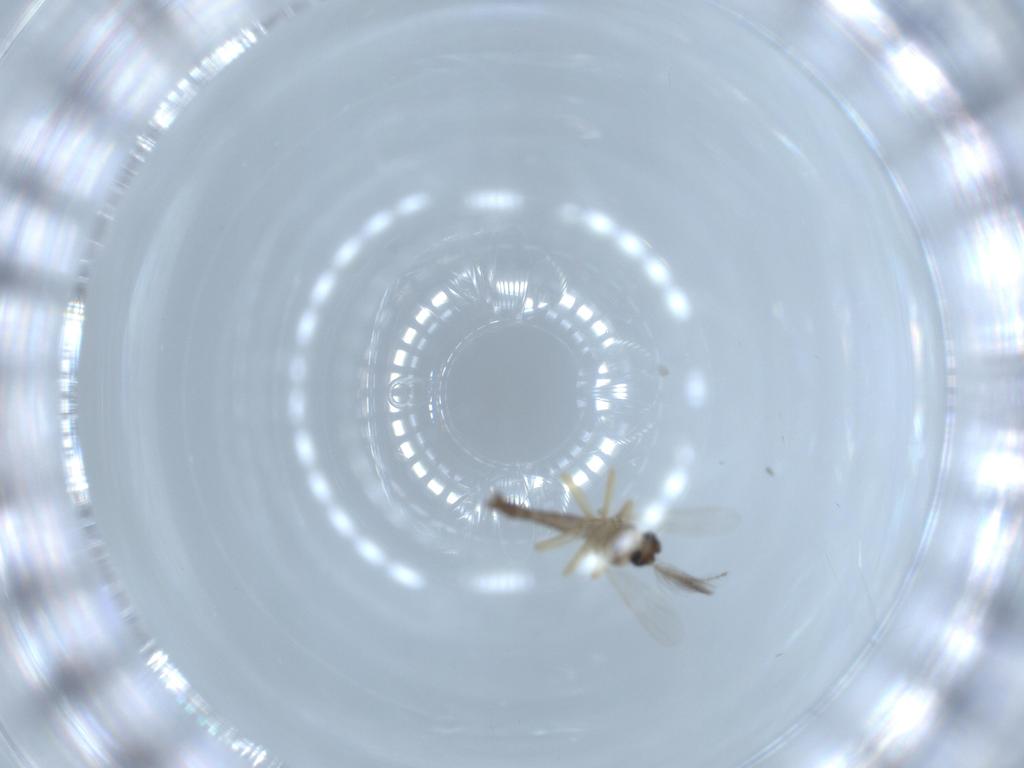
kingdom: Animalia
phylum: Arthropoda
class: Insecta
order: Diptera
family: Ceratopogonidae
